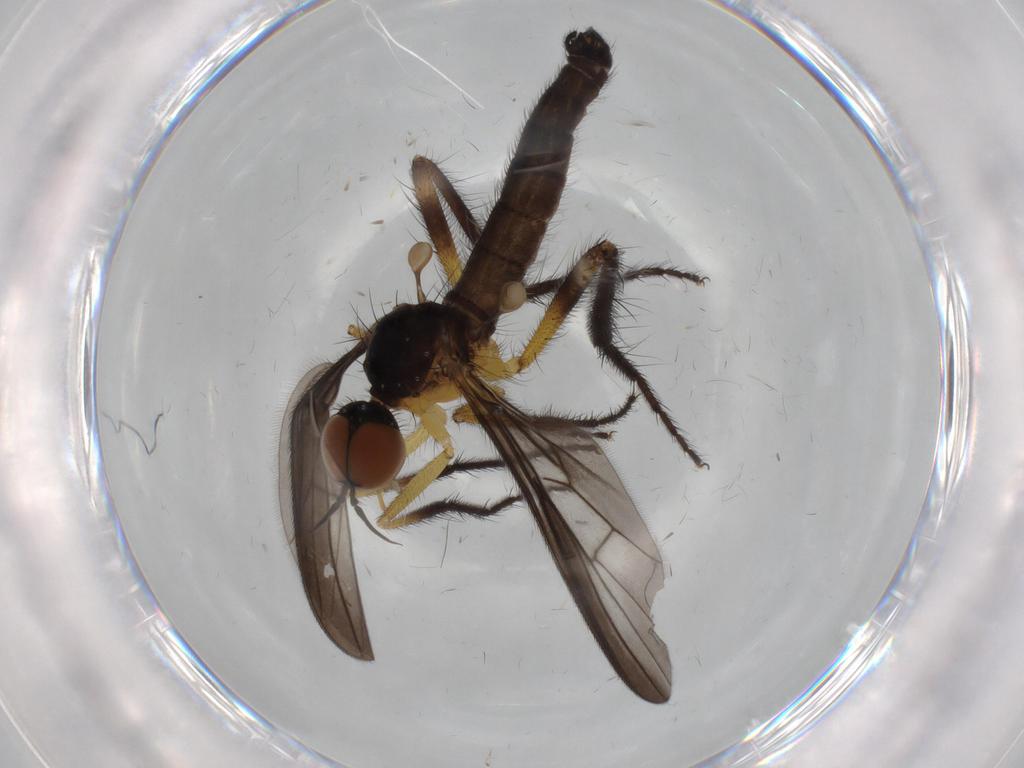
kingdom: Animalia
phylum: Arthropoda
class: Insecta
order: Diptera
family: Empididae
